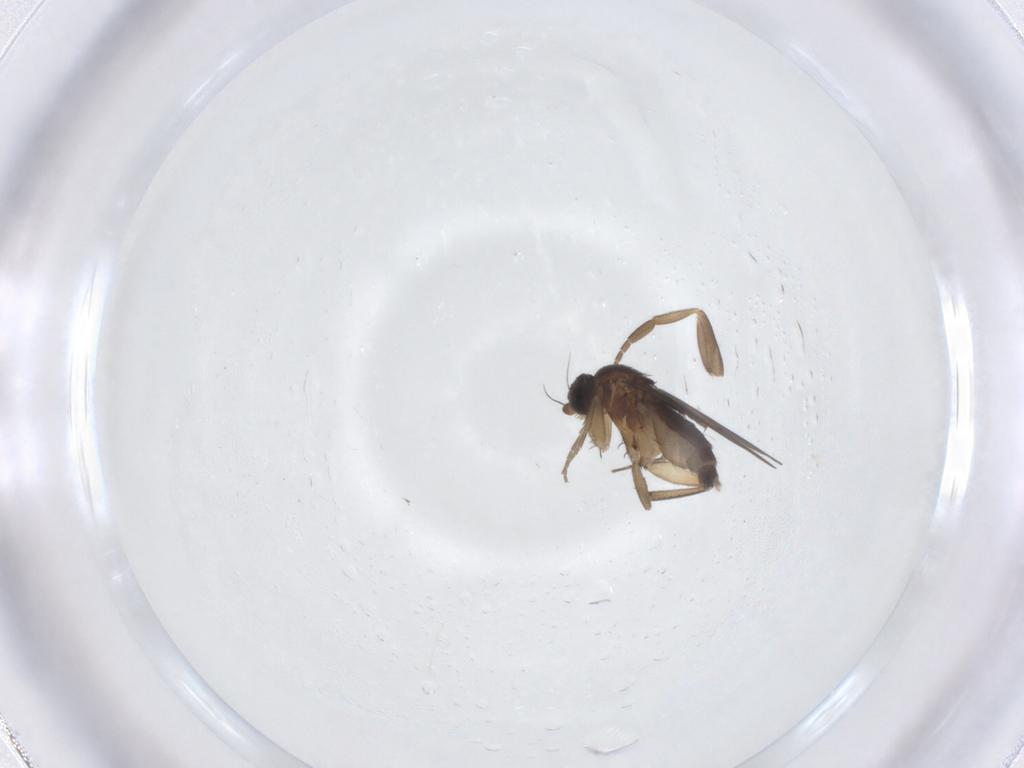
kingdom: Animalia
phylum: Arthropoda
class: Insecta
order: Diptera
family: Phoridae
